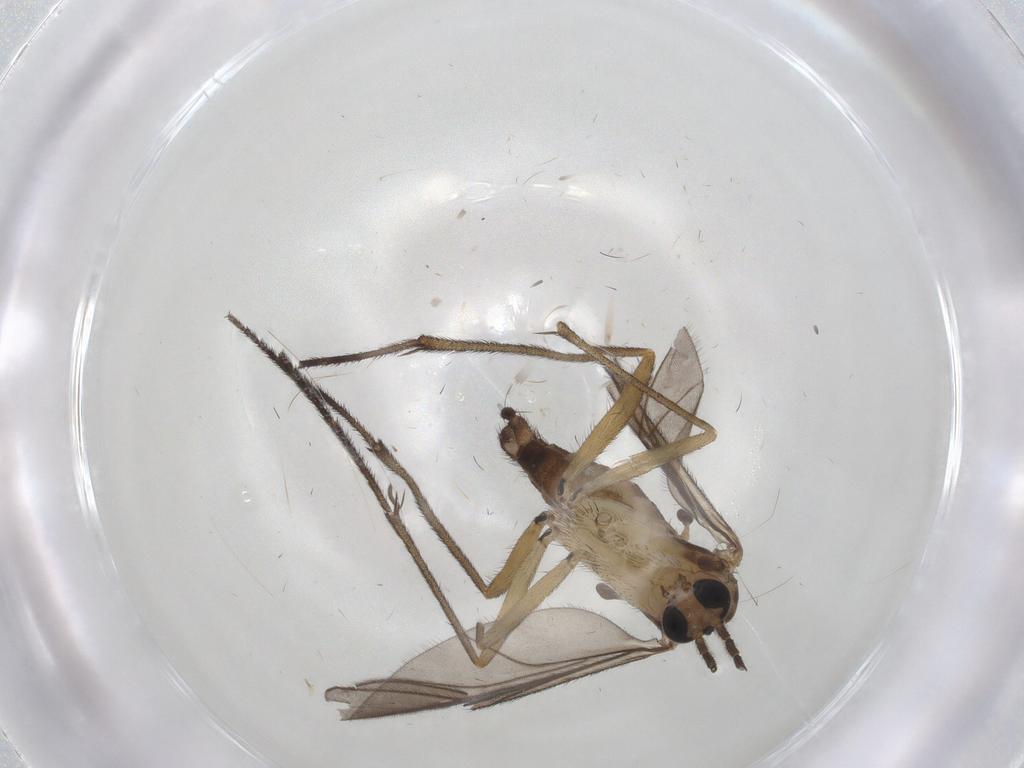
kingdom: Animalia
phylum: Arthropoda
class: Insecta
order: Diptera
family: Sciaridae
